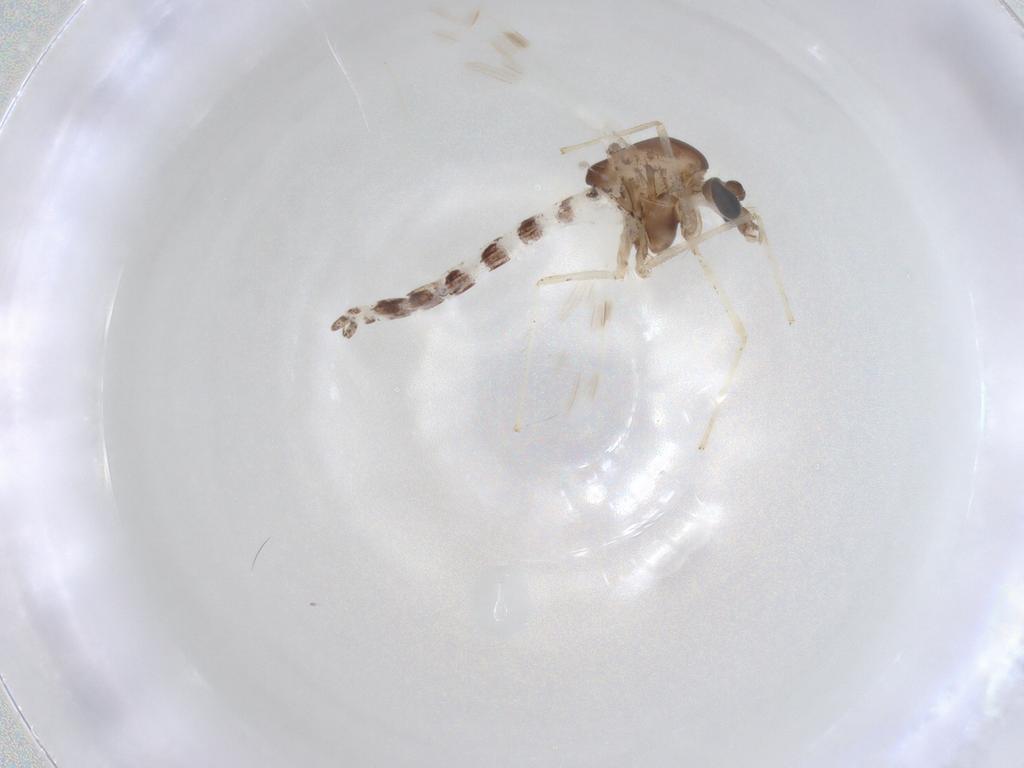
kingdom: Animalia
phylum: Arthropoda
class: Insecta
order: Diptera
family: Chironomidae
